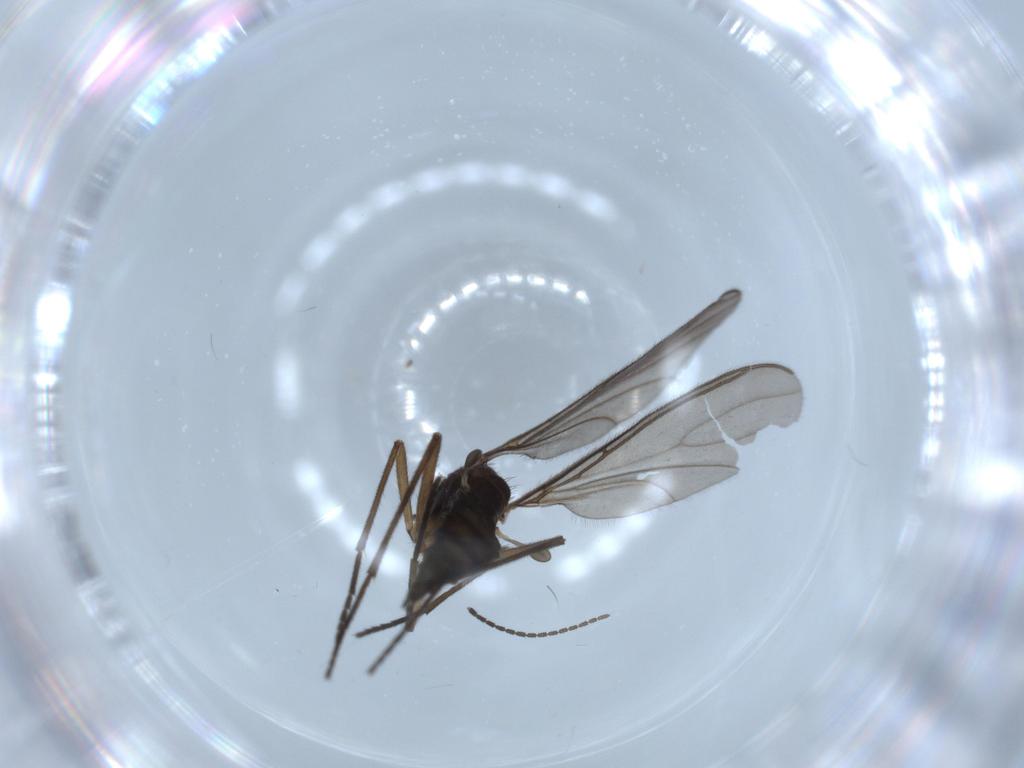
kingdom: Animalia
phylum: Arthropoda
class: Insecta
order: Diptera
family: Sciaridae
